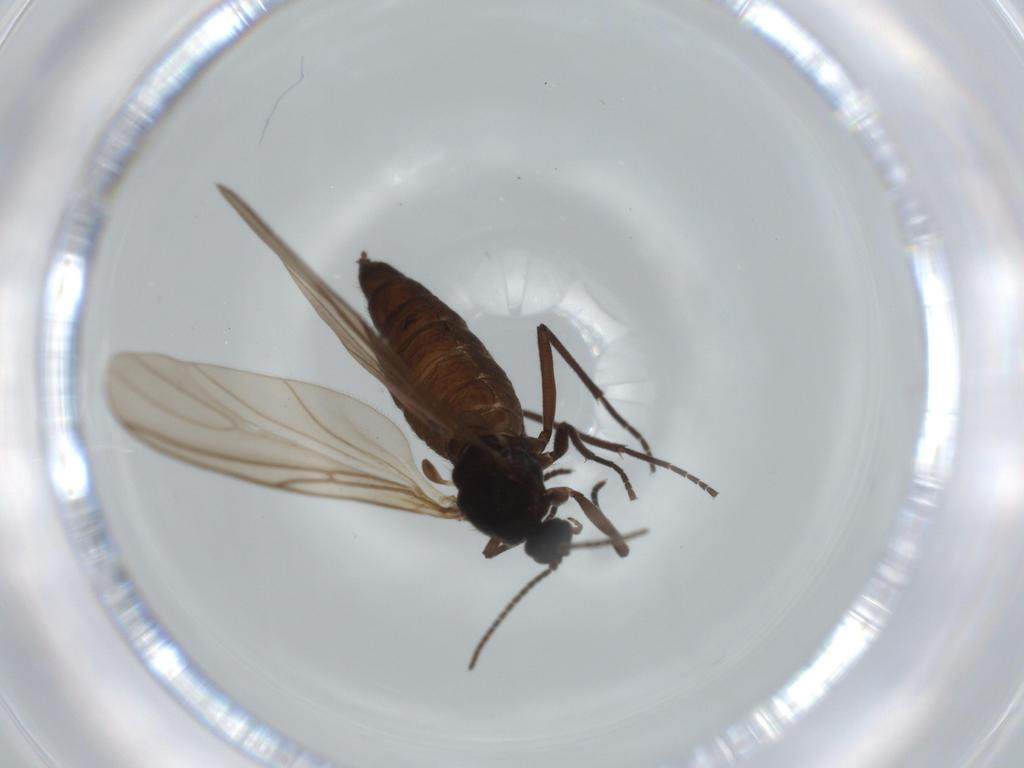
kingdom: Animalia
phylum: Arthropoda
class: Insecta
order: Diptera
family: Sciaridae
